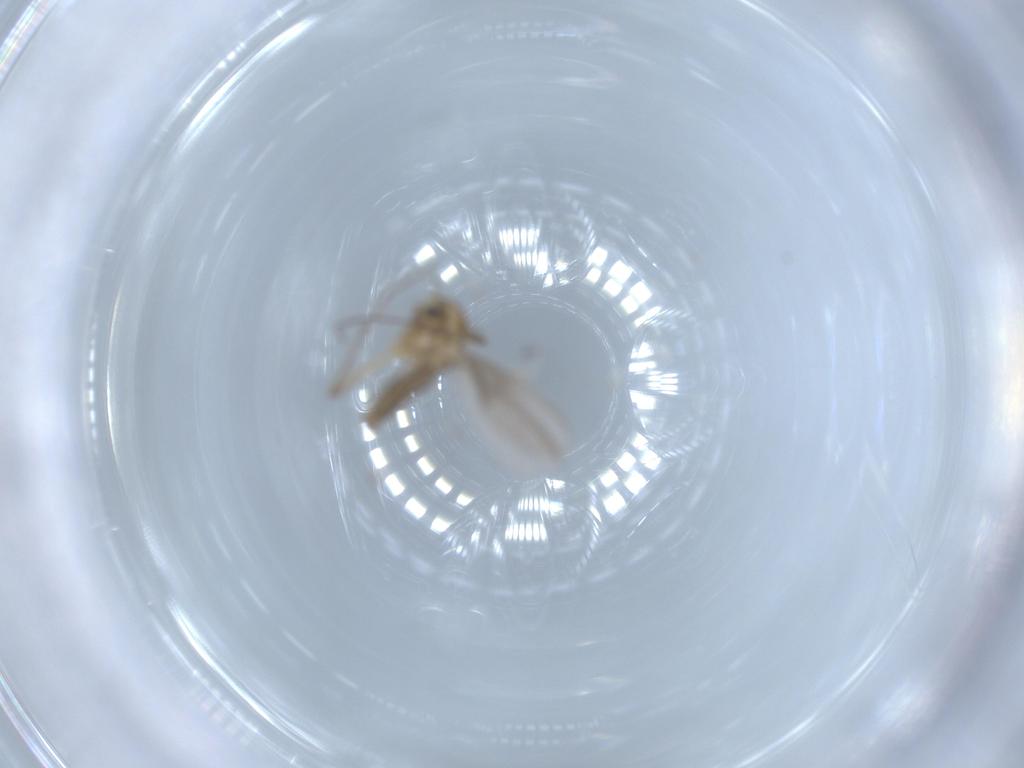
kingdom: Animalia
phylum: Arthropoda
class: Insecta
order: Diptera
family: Chironomidae
